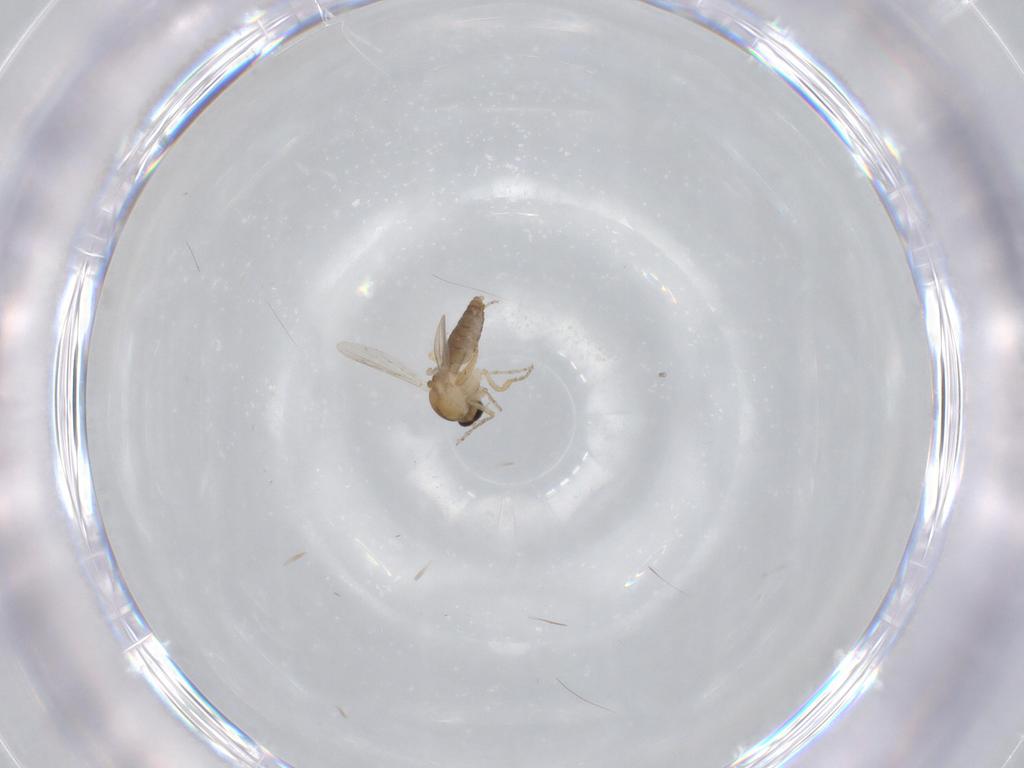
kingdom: Animalia
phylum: Arthropoda
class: Insecta
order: Diptera
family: Ceratopogonidae
